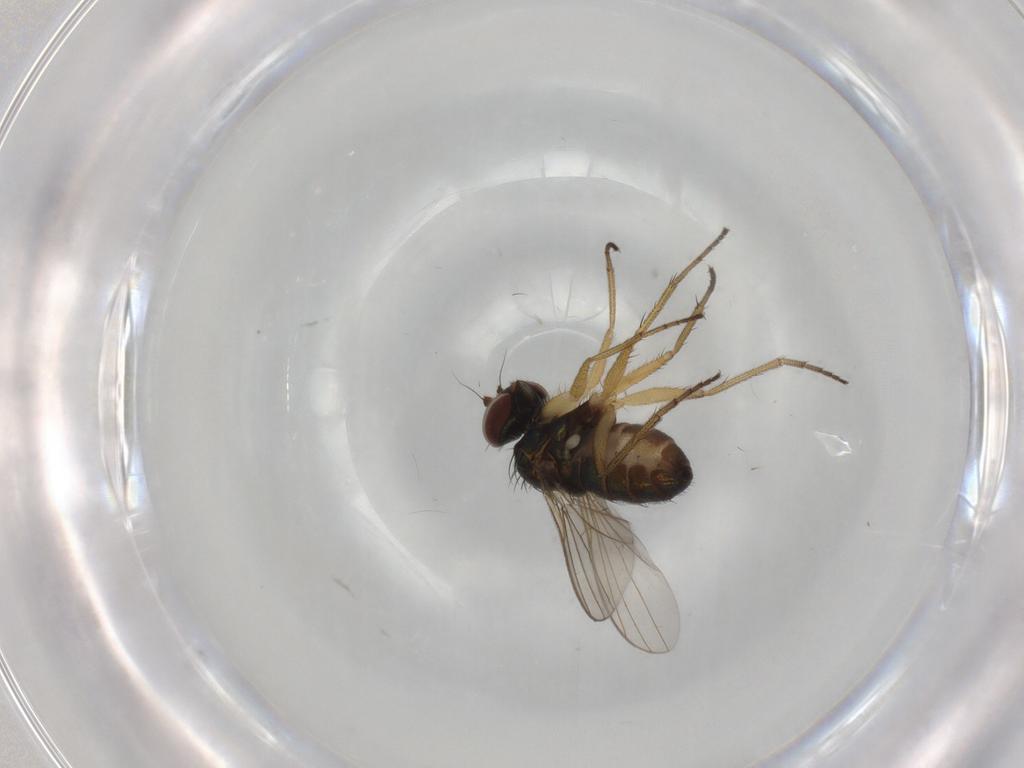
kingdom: Animalia
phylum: Arthropoda
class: Insecta
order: Diptera
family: Dolichopodidae
